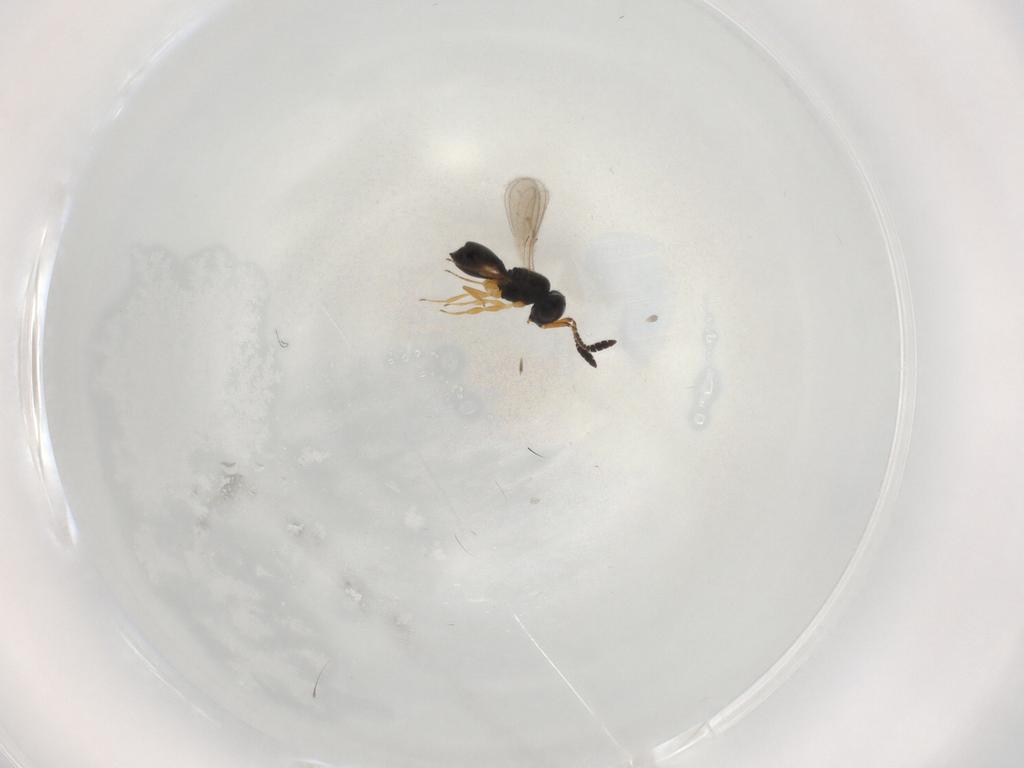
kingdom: Animalia
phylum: Arthropoda
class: Insecta
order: Hymenoptera
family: Scelionidae
